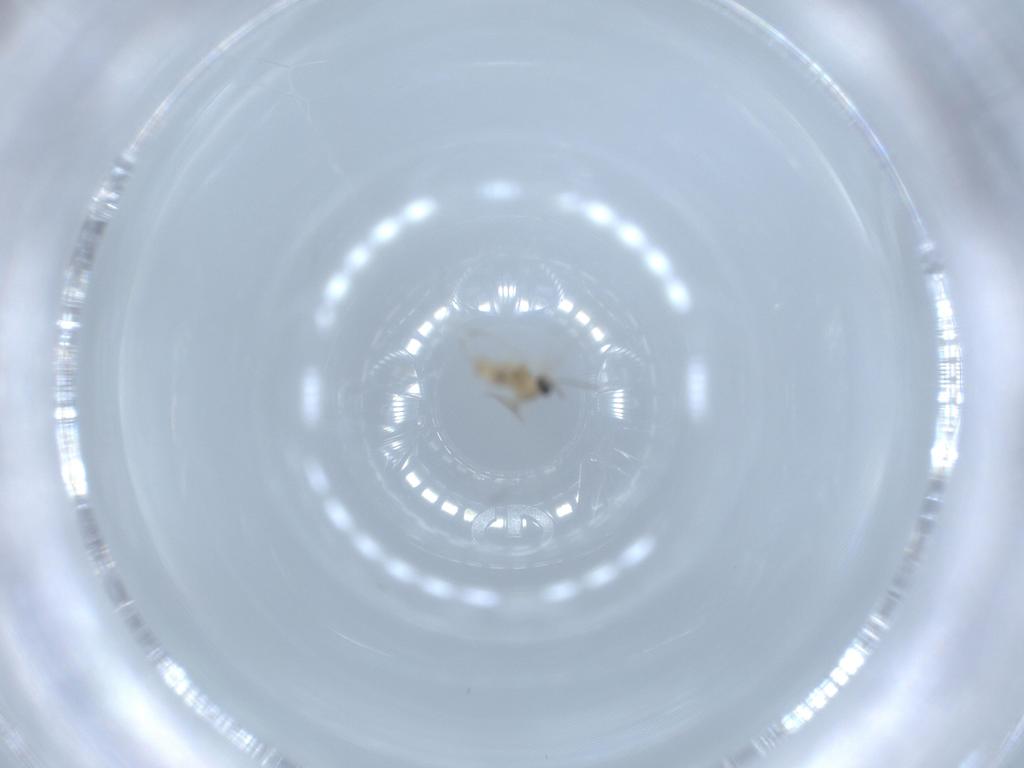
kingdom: Animalia
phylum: Arthropoda
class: Insecta
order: Diptera
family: Cecidomyiidae
